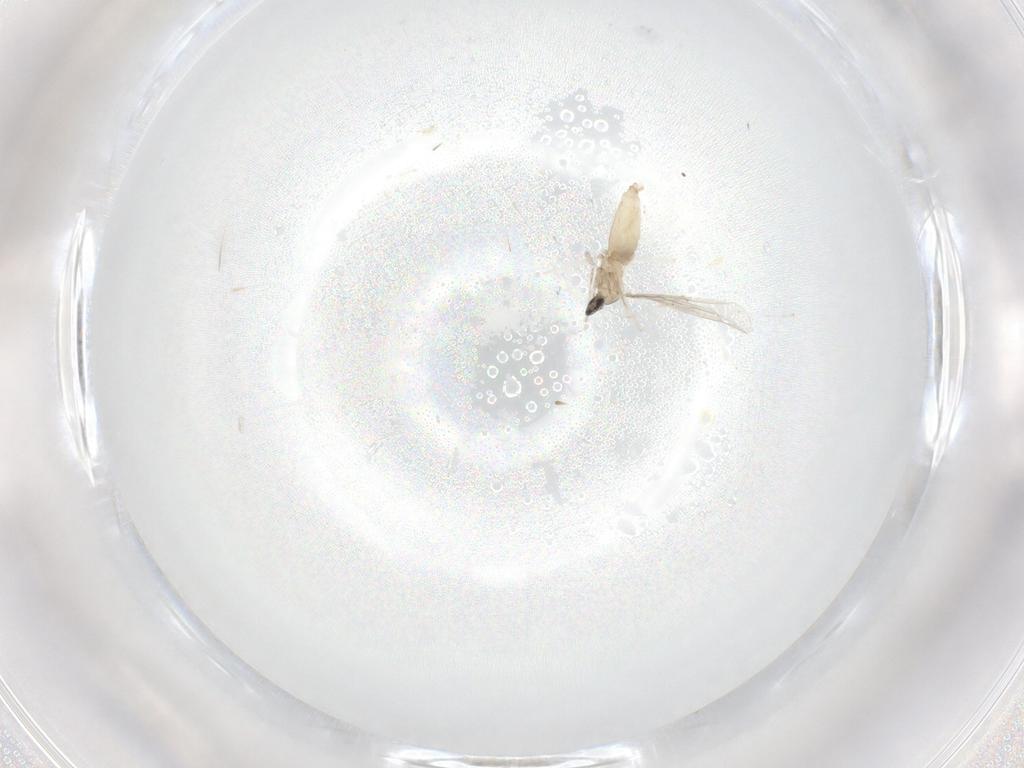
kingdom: Animalia
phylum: Arthropoda
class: Insecta
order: Diptera
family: Cecidomyiidae
